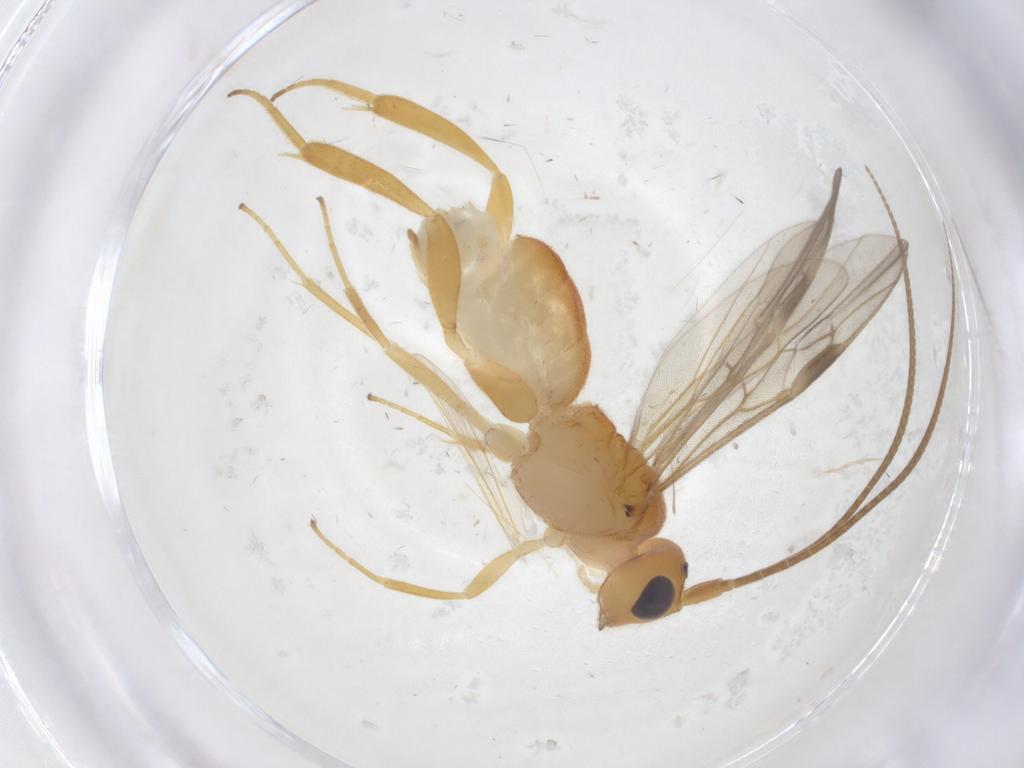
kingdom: Animalia
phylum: Arthropoda
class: Insecta
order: Hymenoptera
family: Braconidae
